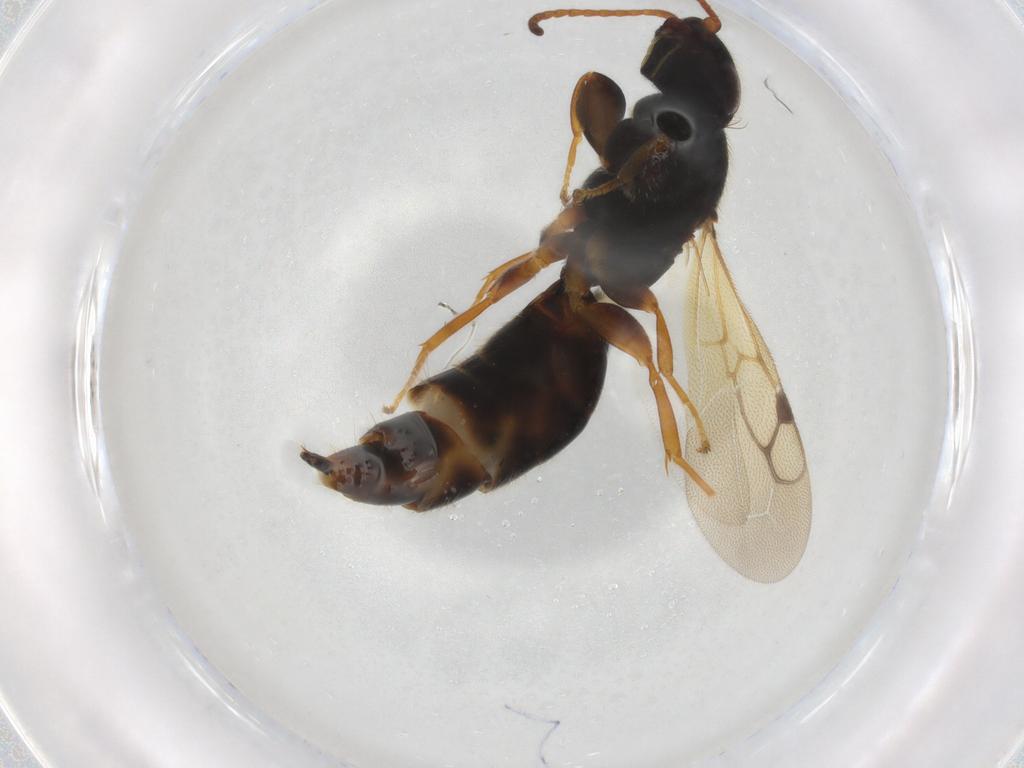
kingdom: Animalia
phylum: Arthropoda
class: Insecta
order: Hymenoptera
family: Bethylidae
